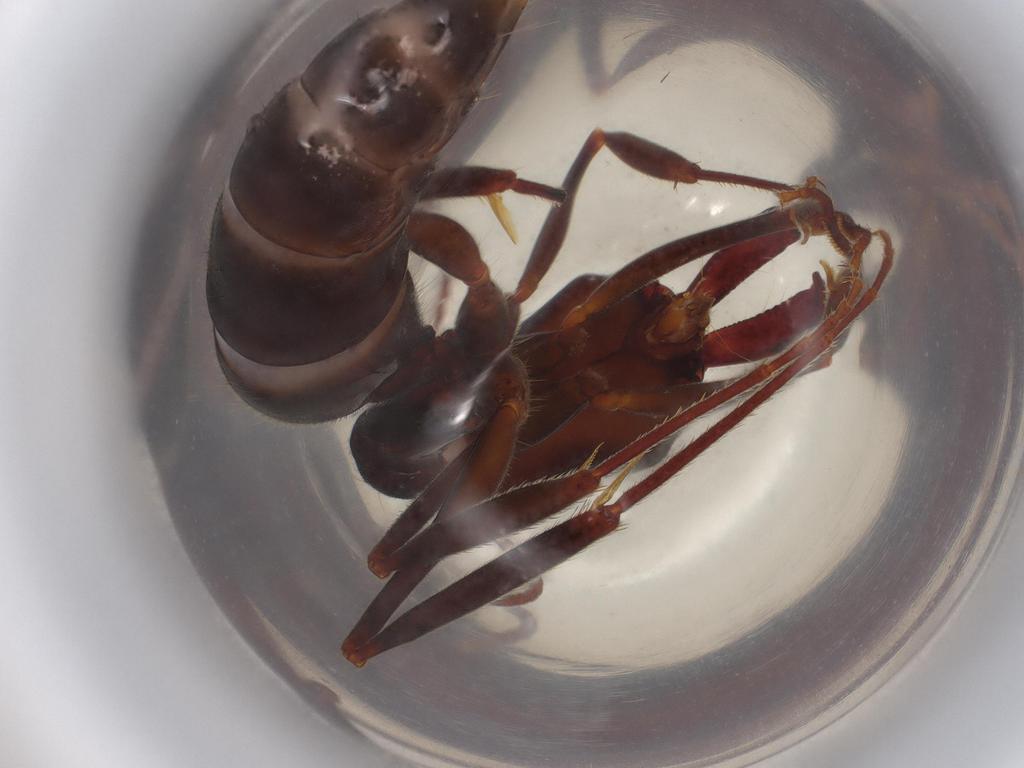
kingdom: Animalia
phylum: Arthropoda
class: Insecta
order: Hymenoptera
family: Formicidae
